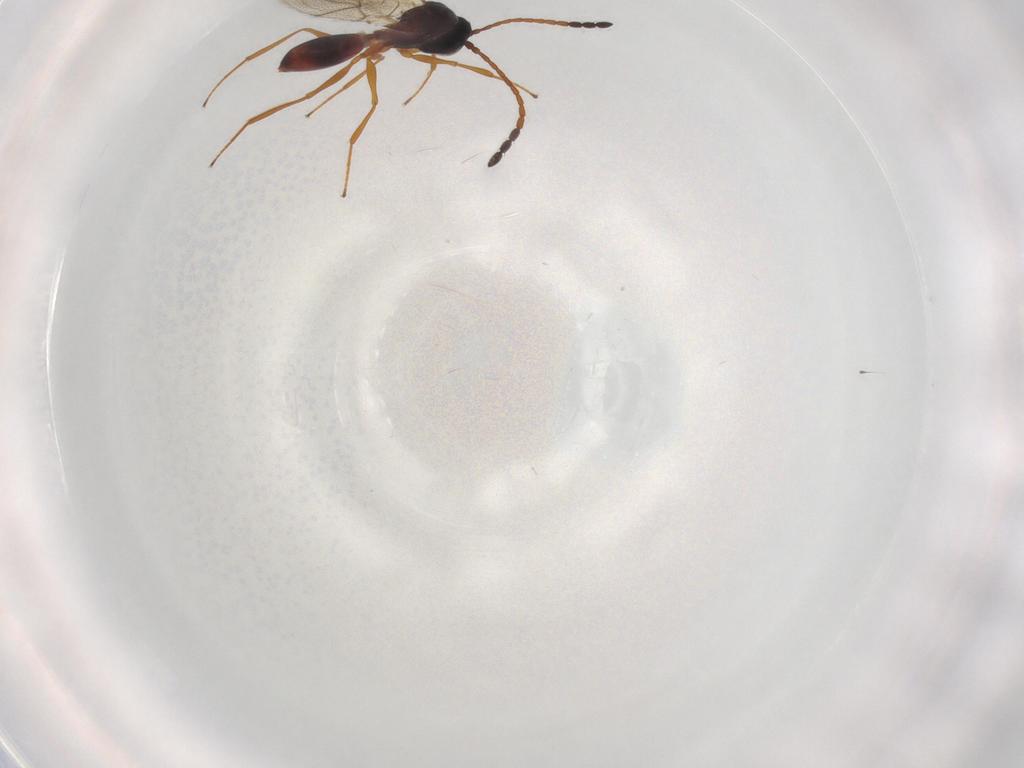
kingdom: Animalia
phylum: Arthropoda
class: Insecta
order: Hymenoptera
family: Figitidae
